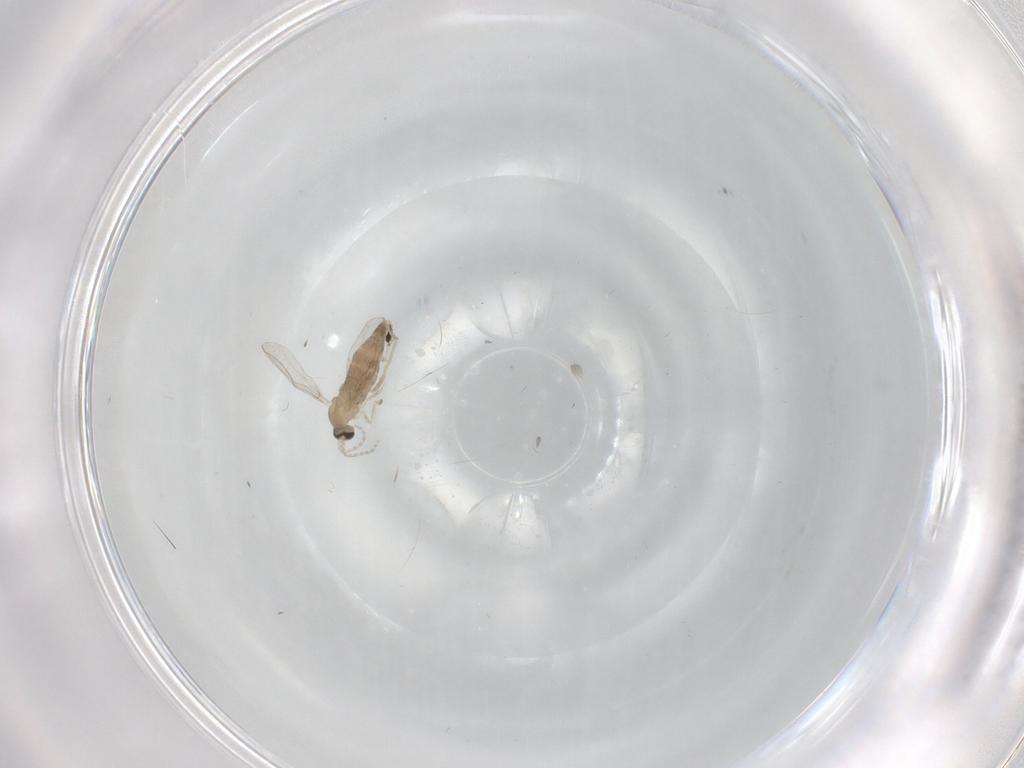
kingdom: Animalia
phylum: Arthropoda
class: Insecta
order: Diptera
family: Cecidomyiidae
